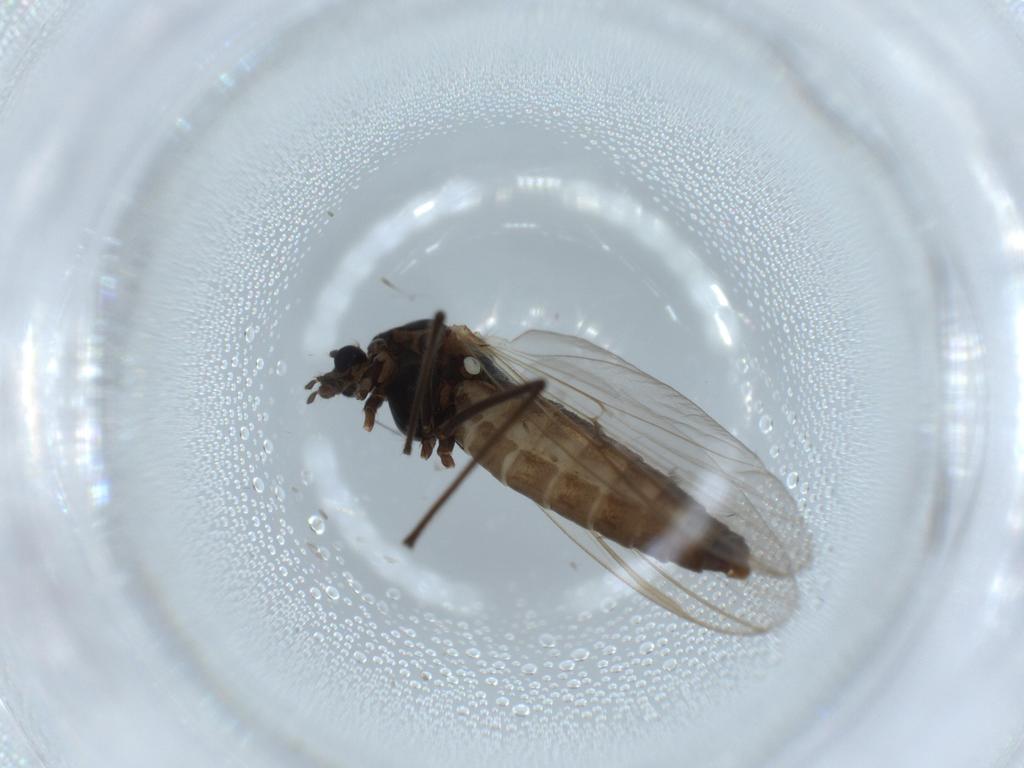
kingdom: Animalia
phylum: Arthropoda
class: Insecta
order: Diptera
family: Chironomidae
